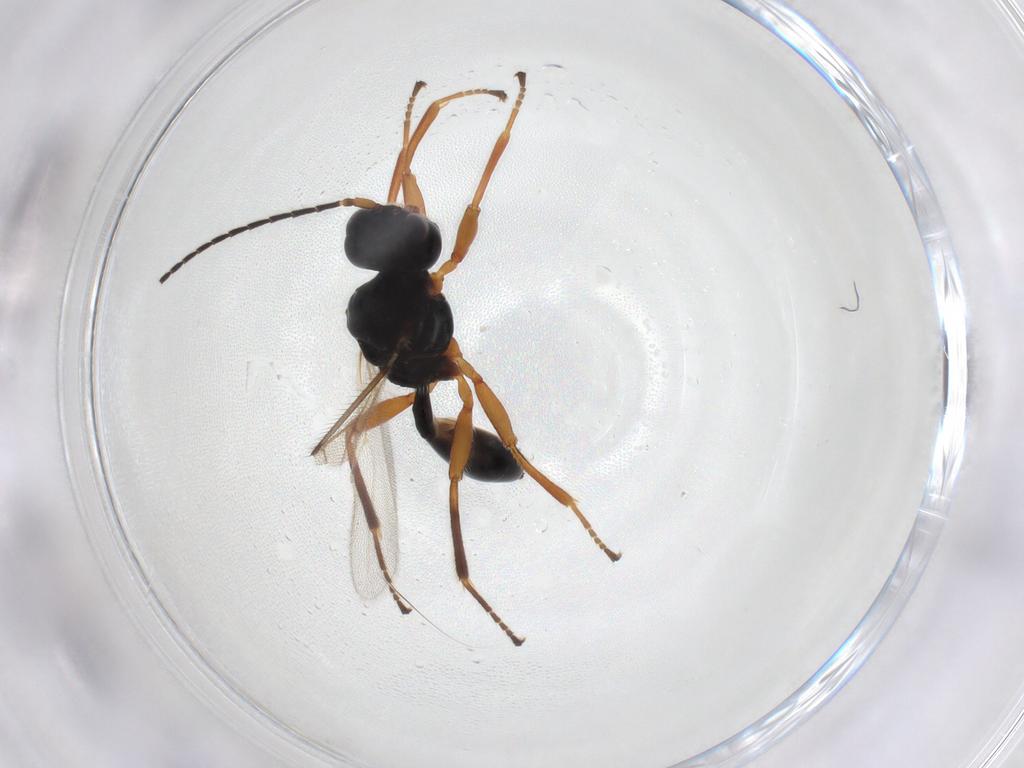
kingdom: Animalia
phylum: Arthropoda
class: Insecta
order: Hymenoptera
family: Braconidae
